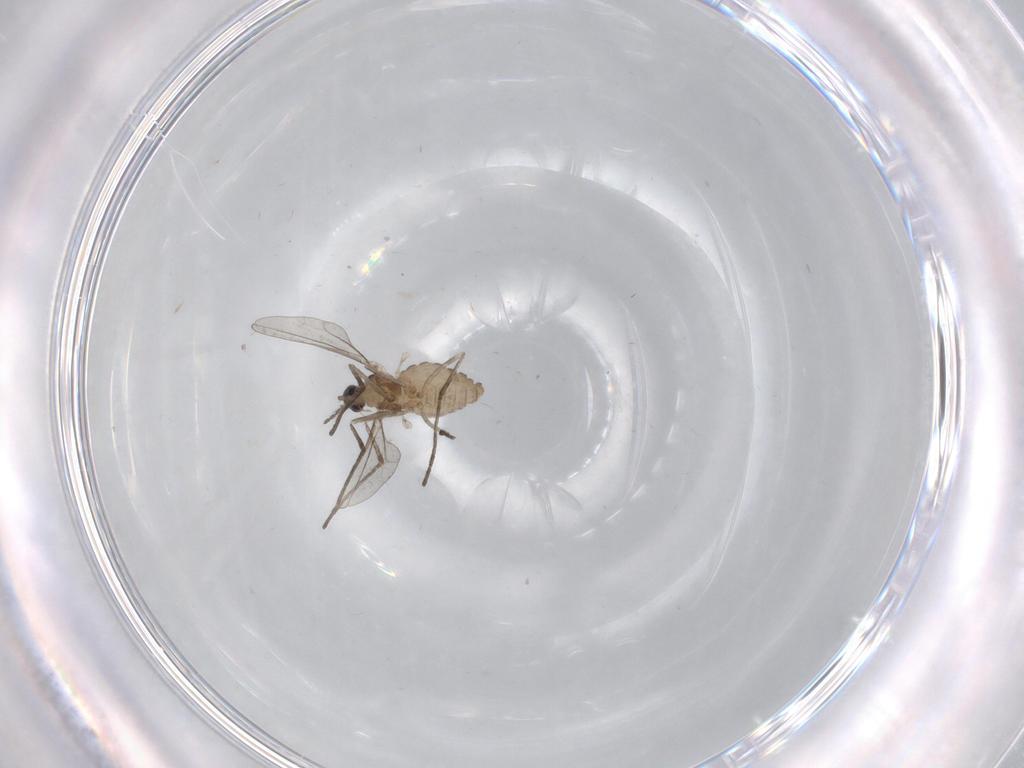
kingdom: Animalia
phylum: Arthropoda
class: Insecta
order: Diptera
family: Cecidomyiidae
